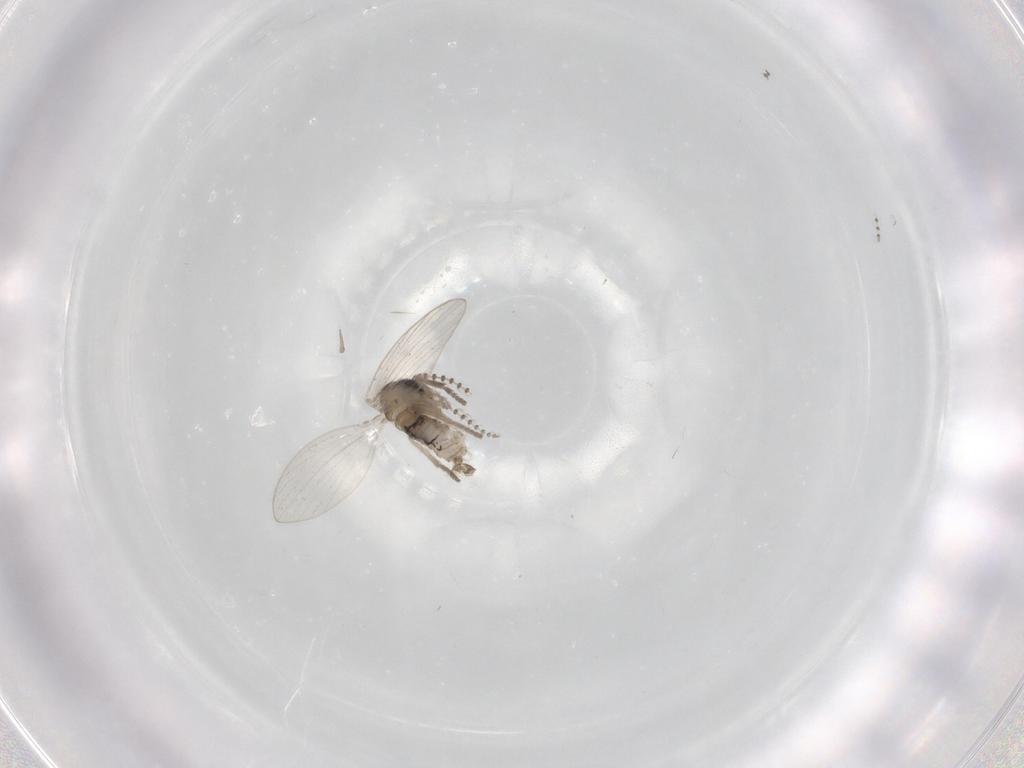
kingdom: Animalia
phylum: Arthropoda
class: Insecta
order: Diptera
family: Psychodidae
